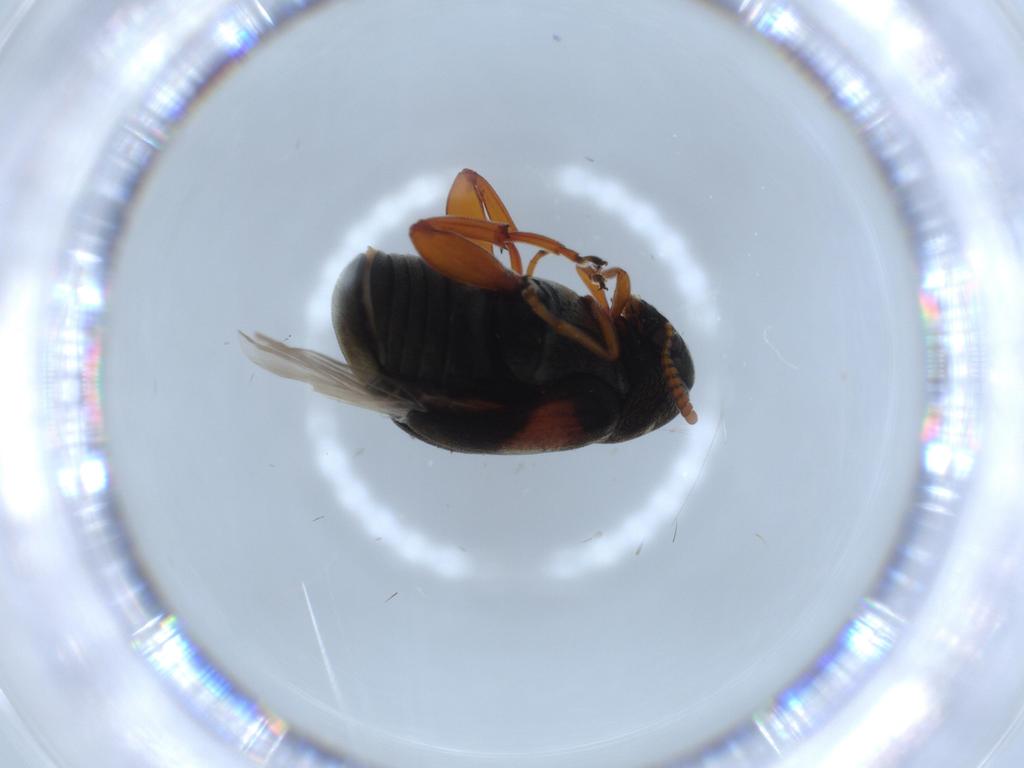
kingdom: Animalia
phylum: Arthropoda
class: Insecta
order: Coleoptera
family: Chrysomelidae
